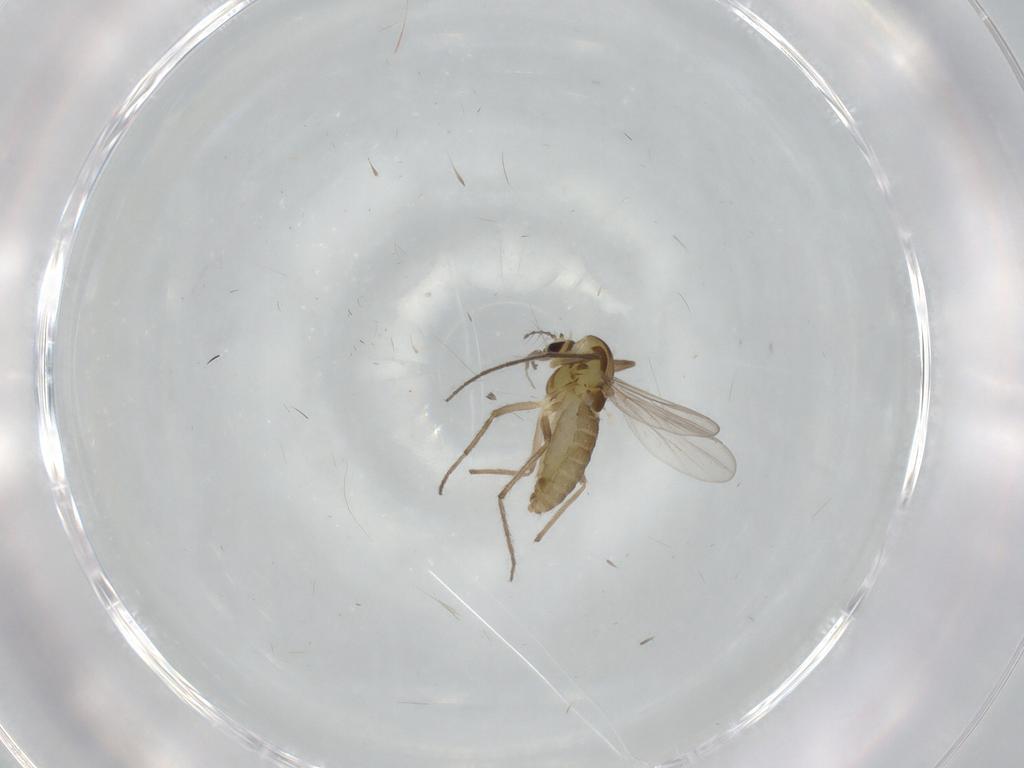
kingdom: Animalia
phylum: Arthropoda
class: Insecta
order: Diptera
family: Chironomidae
